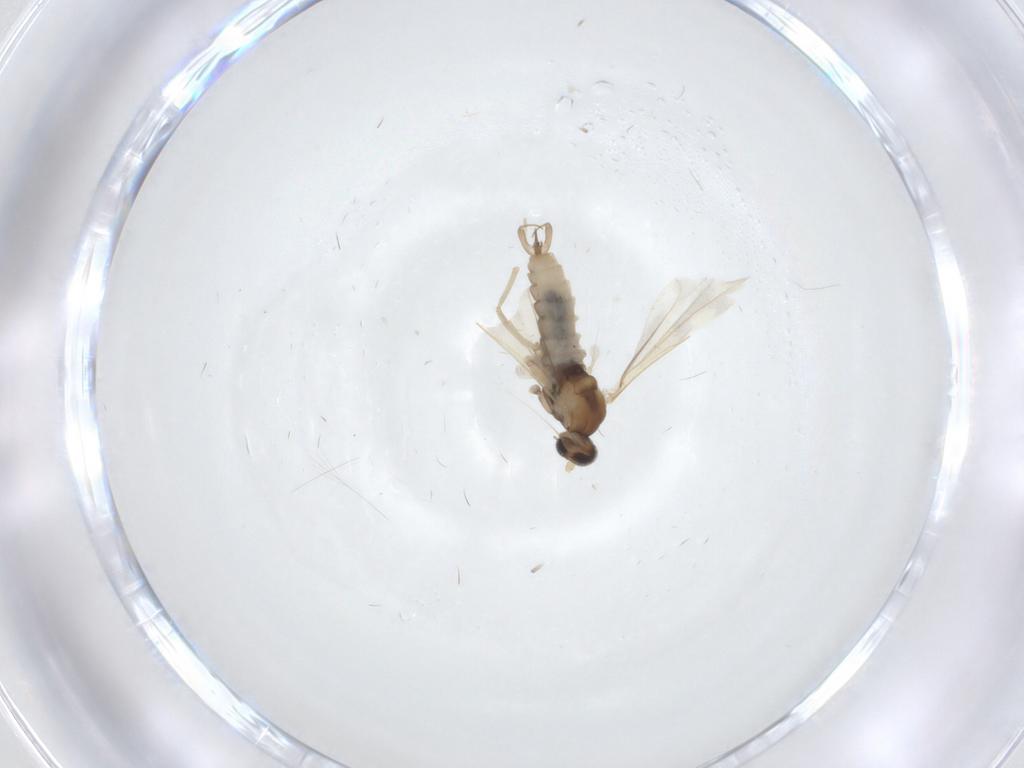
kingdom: Animalia
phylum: Arthropoda
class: Insecta
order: Diptera
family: Cecidomyiidae
